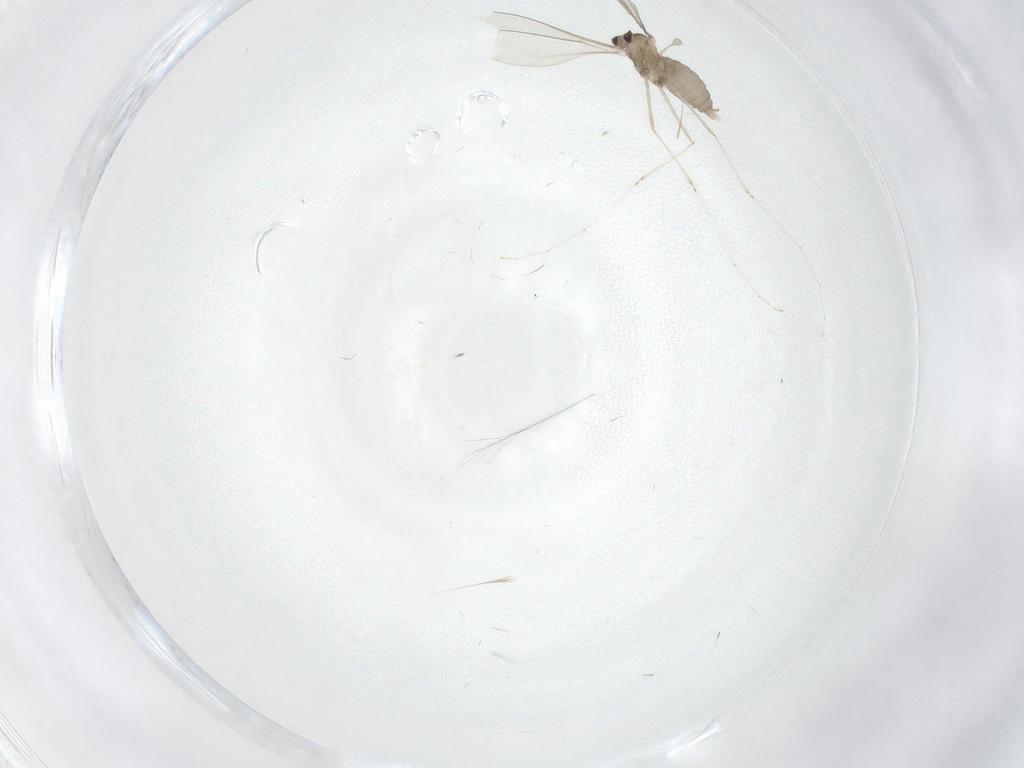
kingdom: Animalia
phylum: Arthropoda
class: Insecta
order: Diptera
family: Cecidomyiidae
